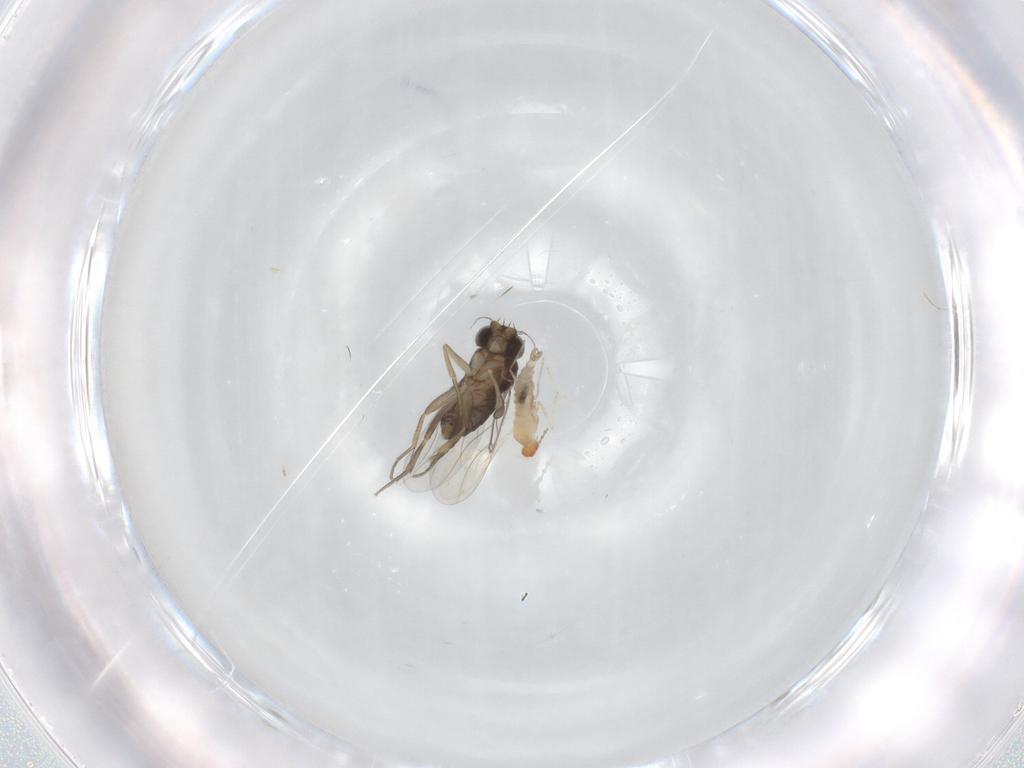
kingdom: Animalia
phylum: Arthropoda
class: Insecta
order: Diptera
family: Phoridae
